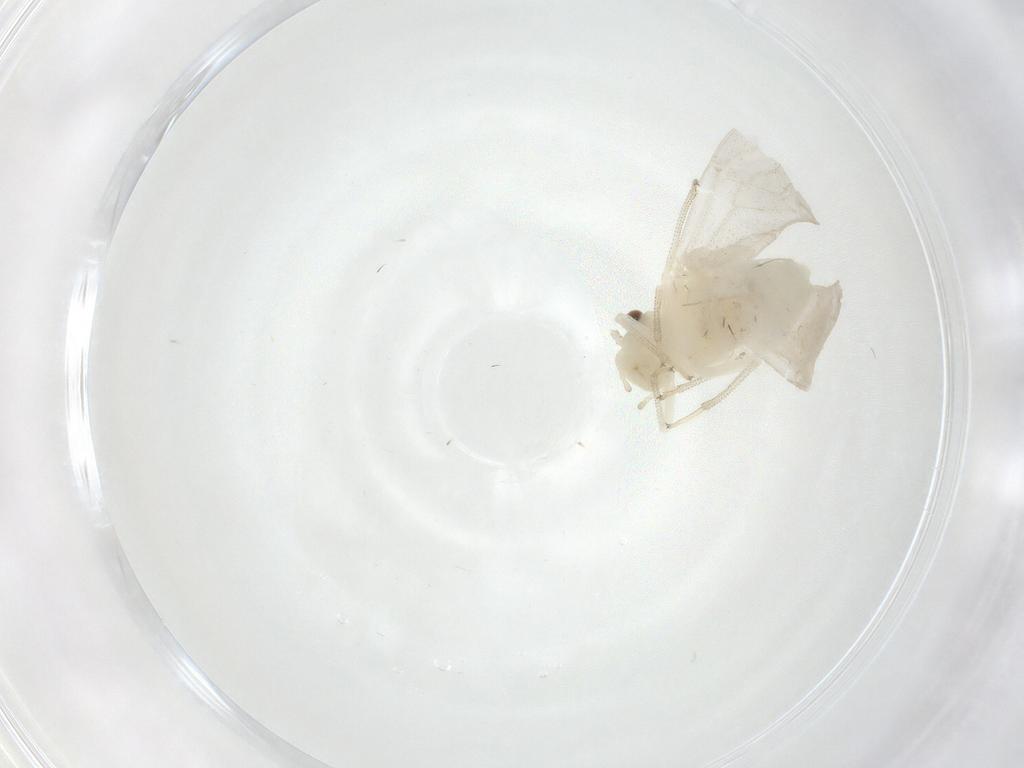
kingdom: Animalia
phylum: Arthropoda
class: Insecta
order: Psocodea
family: Caeciliusidae
